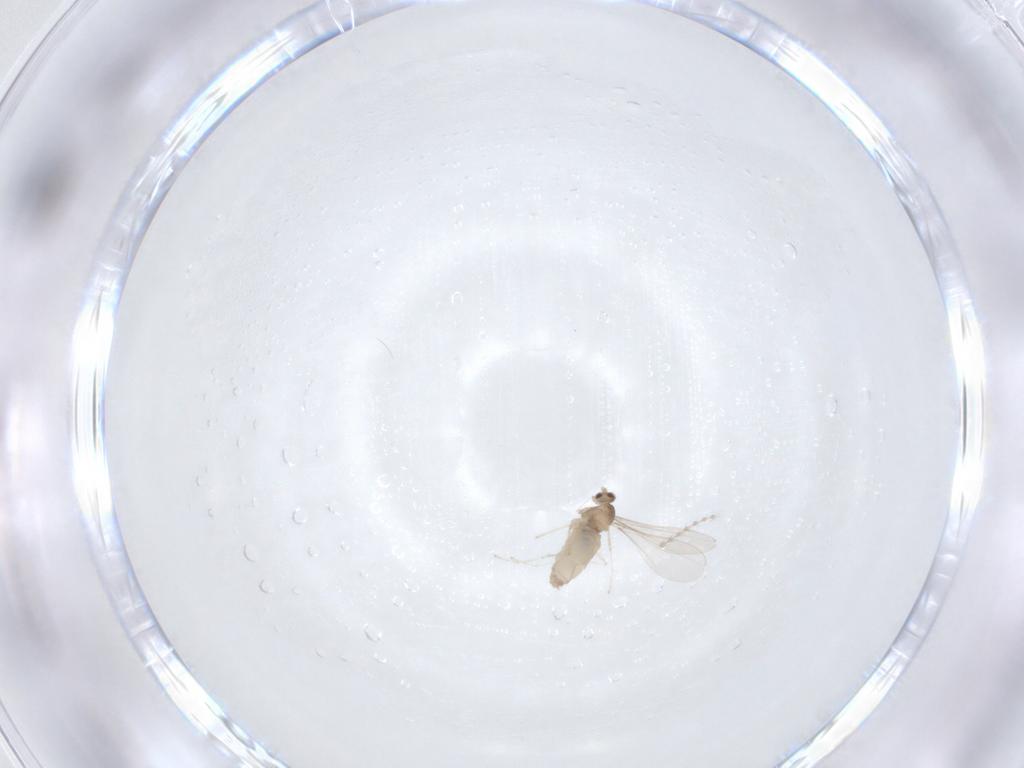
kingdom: Animalia
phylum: Arthropoda
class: Insecta
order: Diptera
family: Cecidomyiidae
